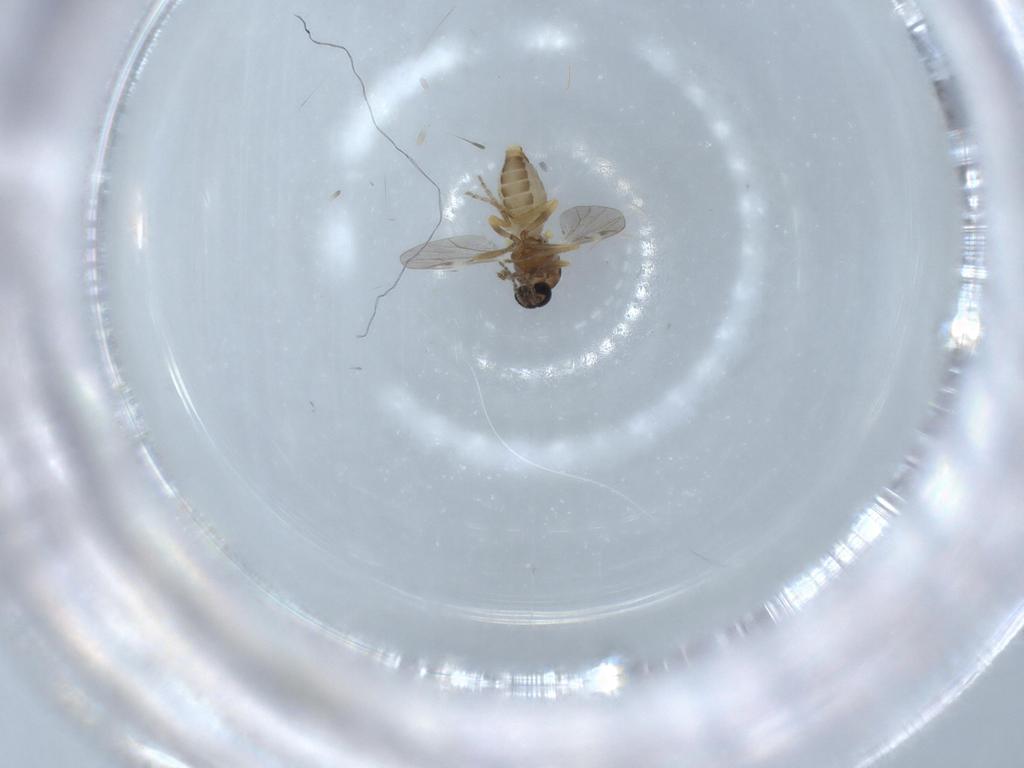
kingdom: Animalia
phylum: Arthropoda
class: Insecta
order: Diptera
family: Ceratopogonidae
